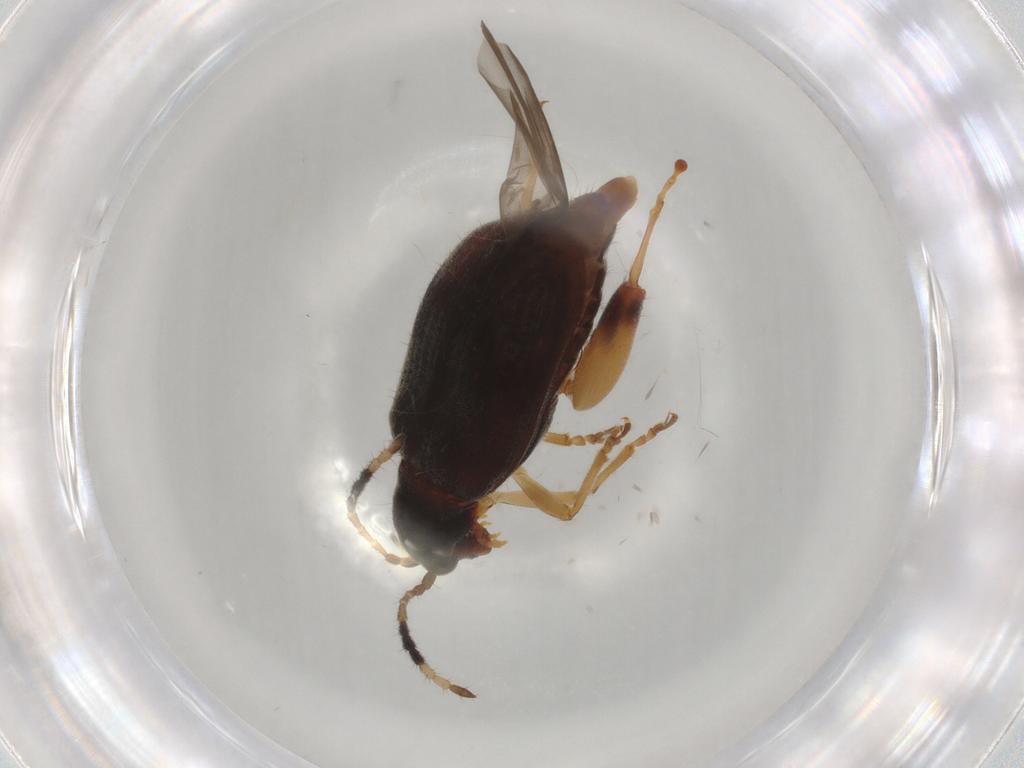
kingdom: Animalia
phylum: Arthropoda
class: Insecta
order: Coleoptera
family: Chrysomelidae
